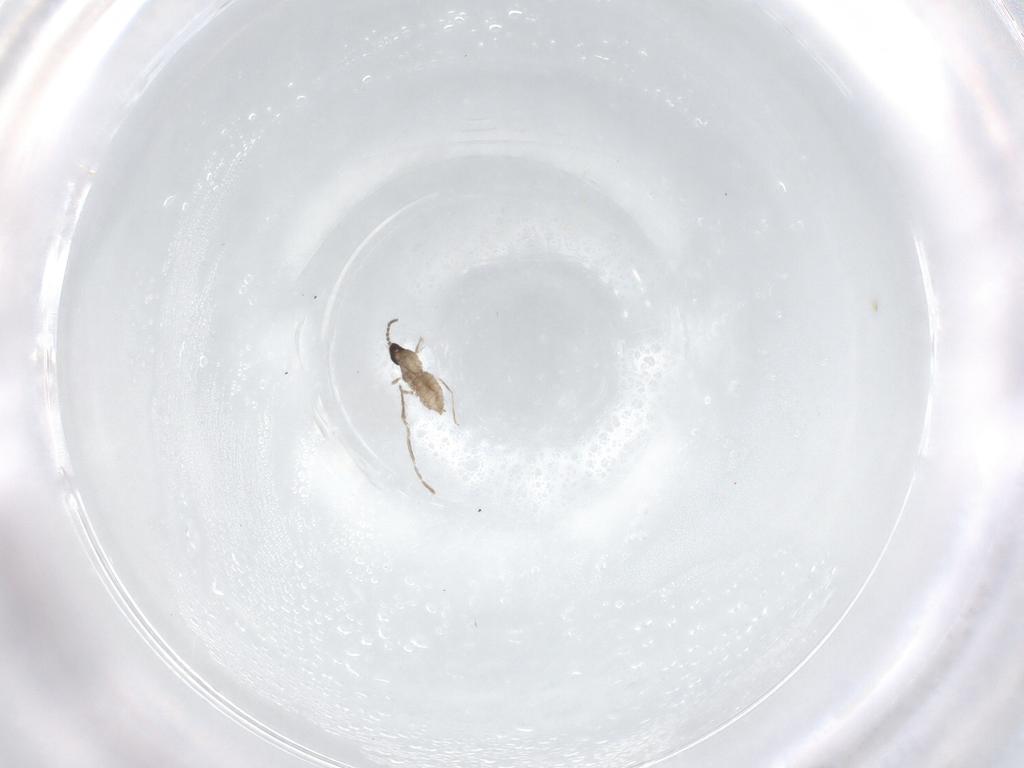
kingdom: Animalia
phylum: Arthropoda
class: Insecta
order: Diptera
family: Cecidomyiidae
